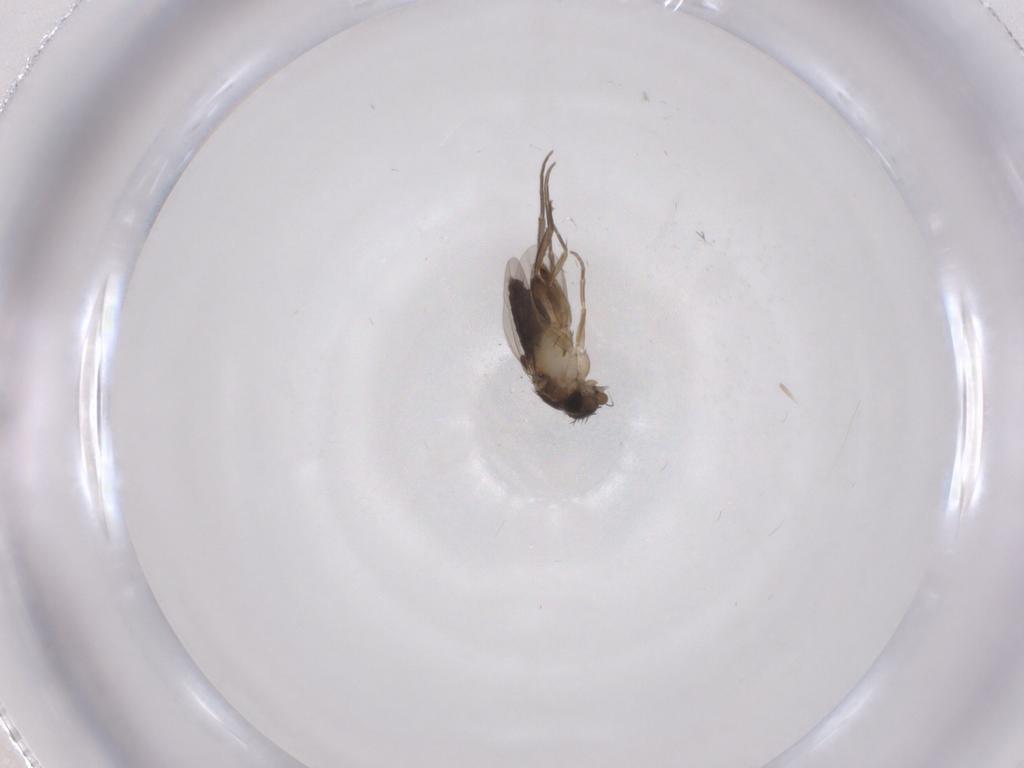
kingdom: Animalia
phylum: Arthropoda
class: Insecta
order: Diptera
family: Phoridae
